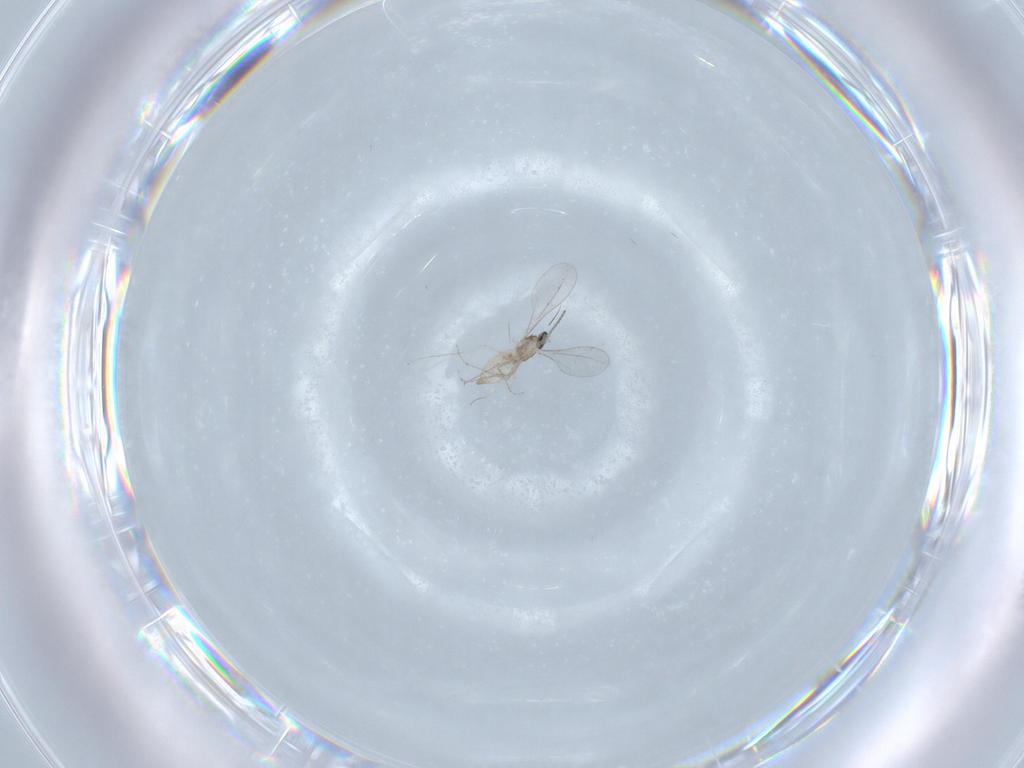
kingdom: Animalia
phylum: Arthropoda
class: Insecta
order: Diptera
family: Cecidomyiidae
